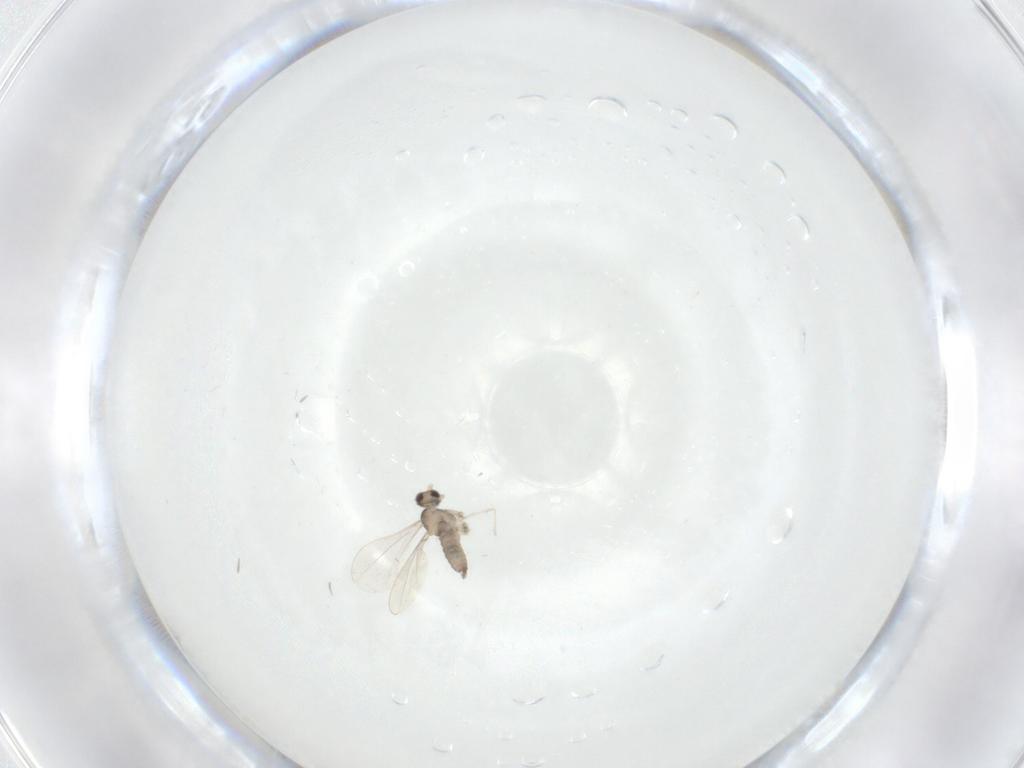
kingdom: Animalia
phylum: Arthropoda
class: Insecta
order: Diptera
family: Cecidomyiidae
